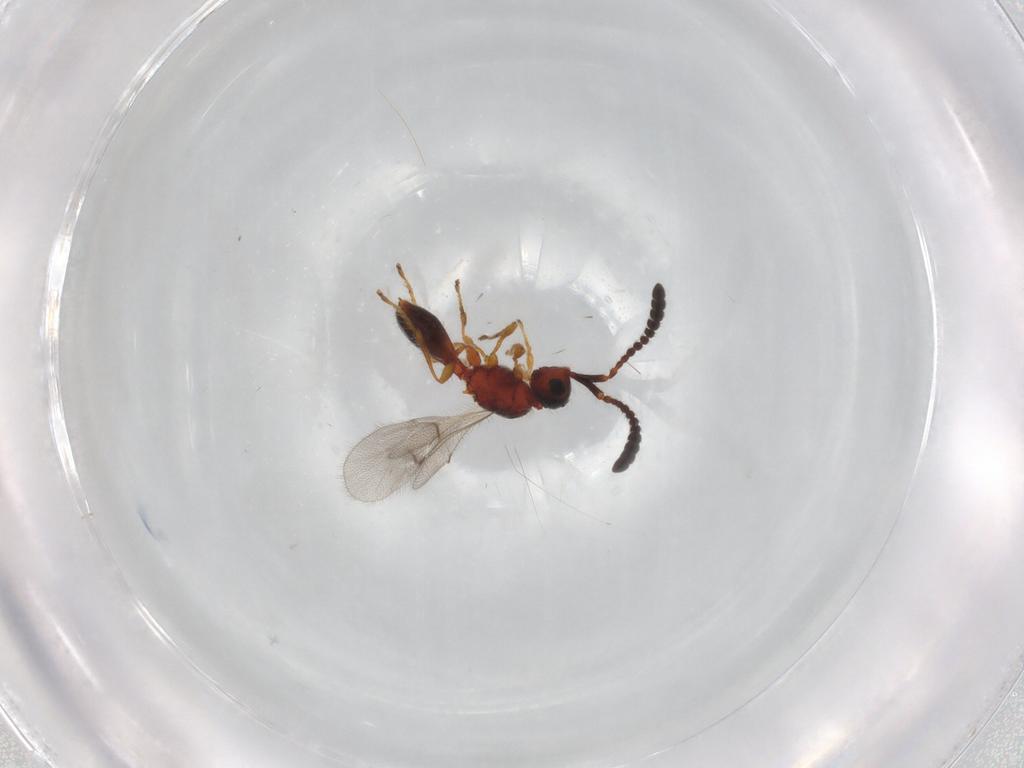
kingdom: Animalia
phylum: Arthropoda
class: Insecta
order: Hymenoptera
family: Diapriidae
